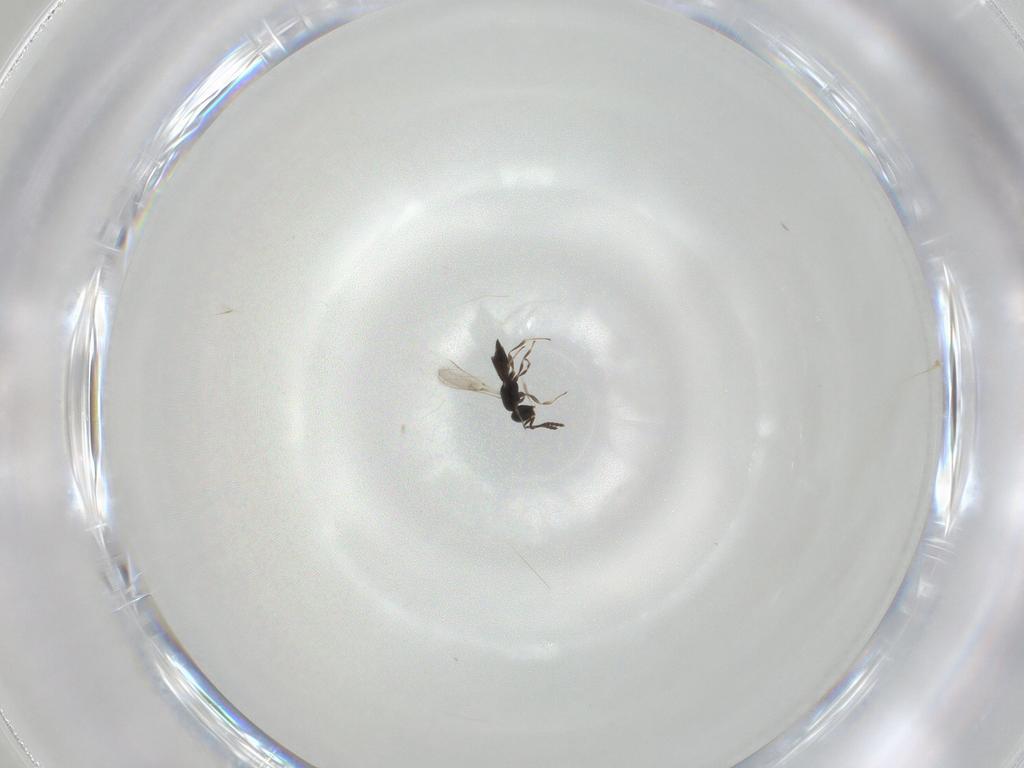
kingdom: Animalia
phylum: Arthropoda
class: Insecta
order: Hymenoptera
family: Scelionidae
